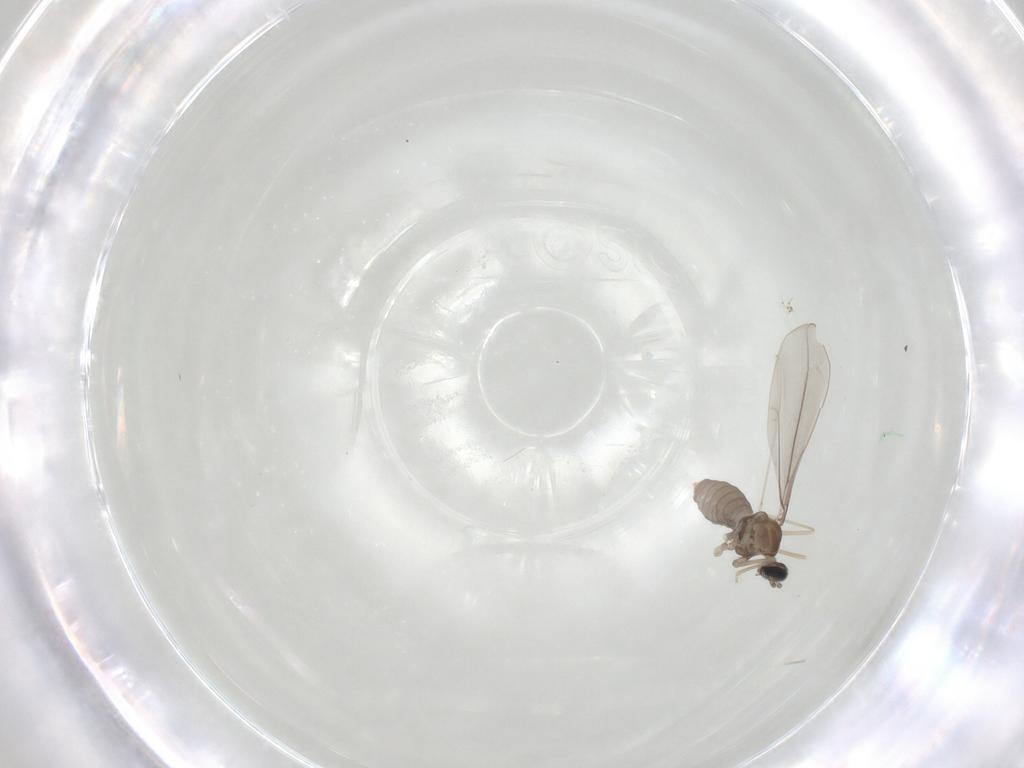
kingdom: Animalia
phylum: Arthropoda
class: Insecta
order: Diptera
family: Cecidomyiidae
